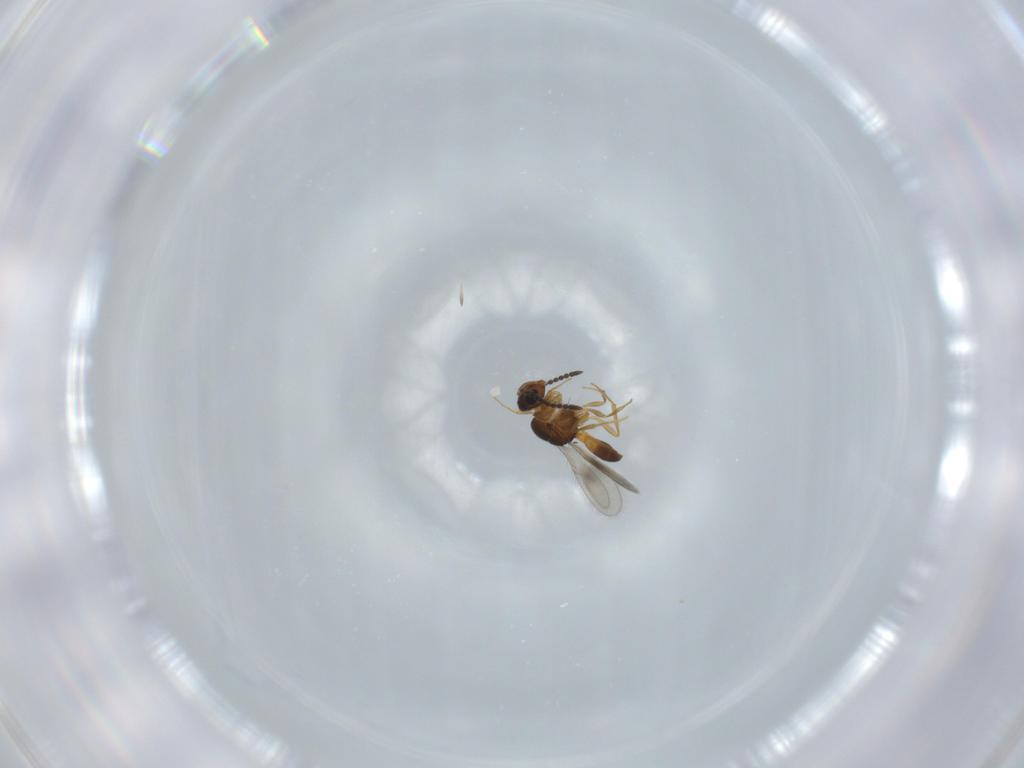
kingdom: Animalia
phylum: Arthropoda
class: Insecta
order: Hymenoptera
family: Scelionidae
